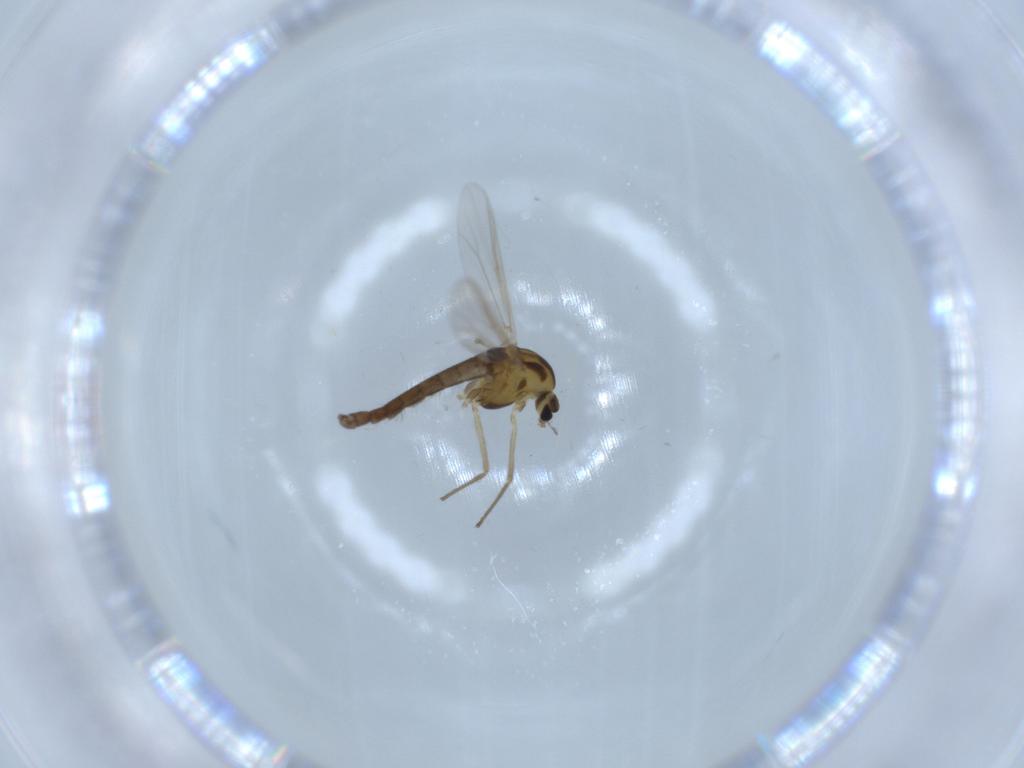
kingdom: Animalia
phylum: Arthropoda
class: Insecta
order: Diptera
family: Chironomidae
